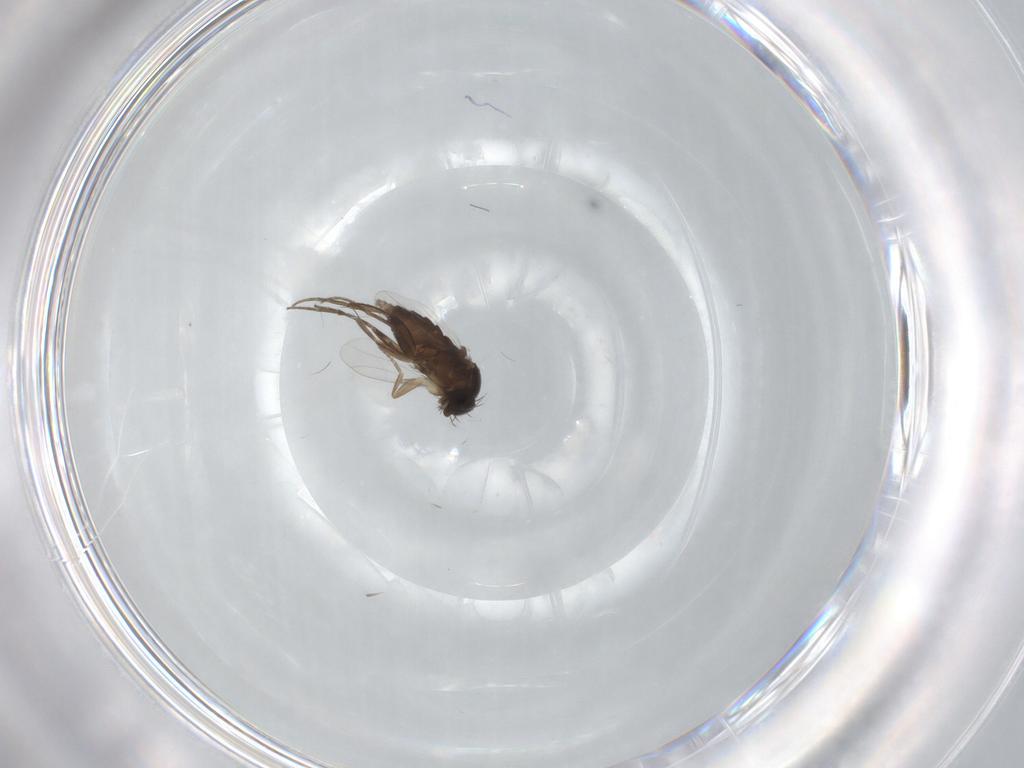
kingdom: Animalia
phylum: Arthropoda
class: Insecta
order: Diptera
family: Phoridae
